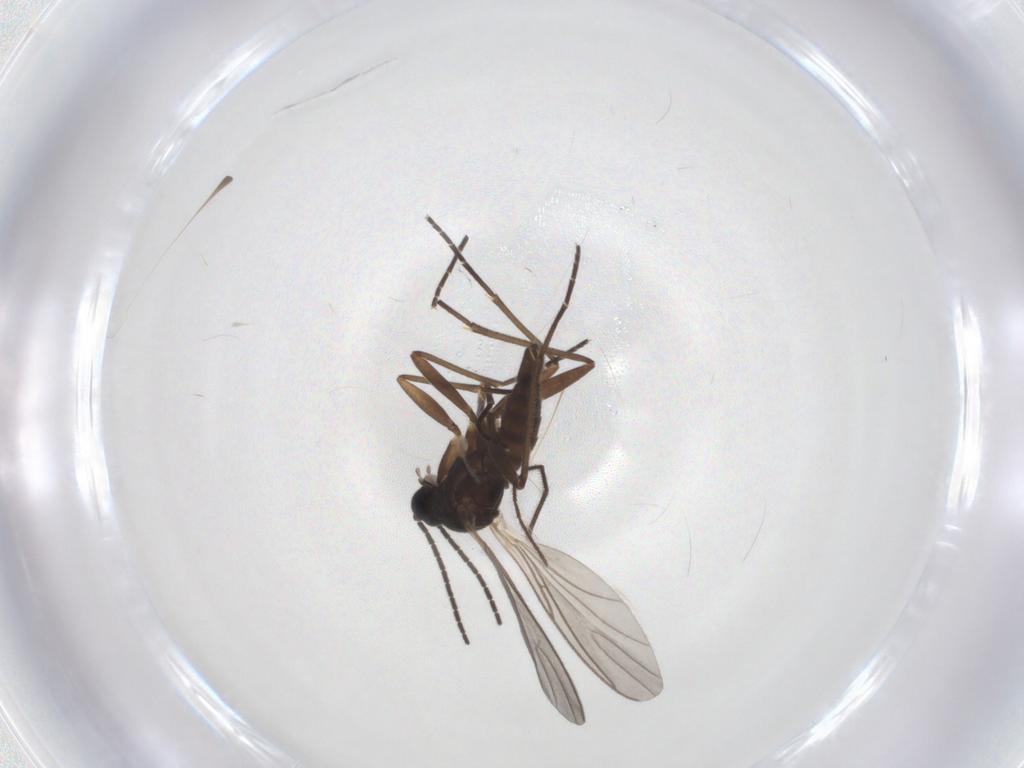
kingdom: Animalia
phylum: Arthropoda
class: Insecta
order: Diptera
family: Sciaridae
